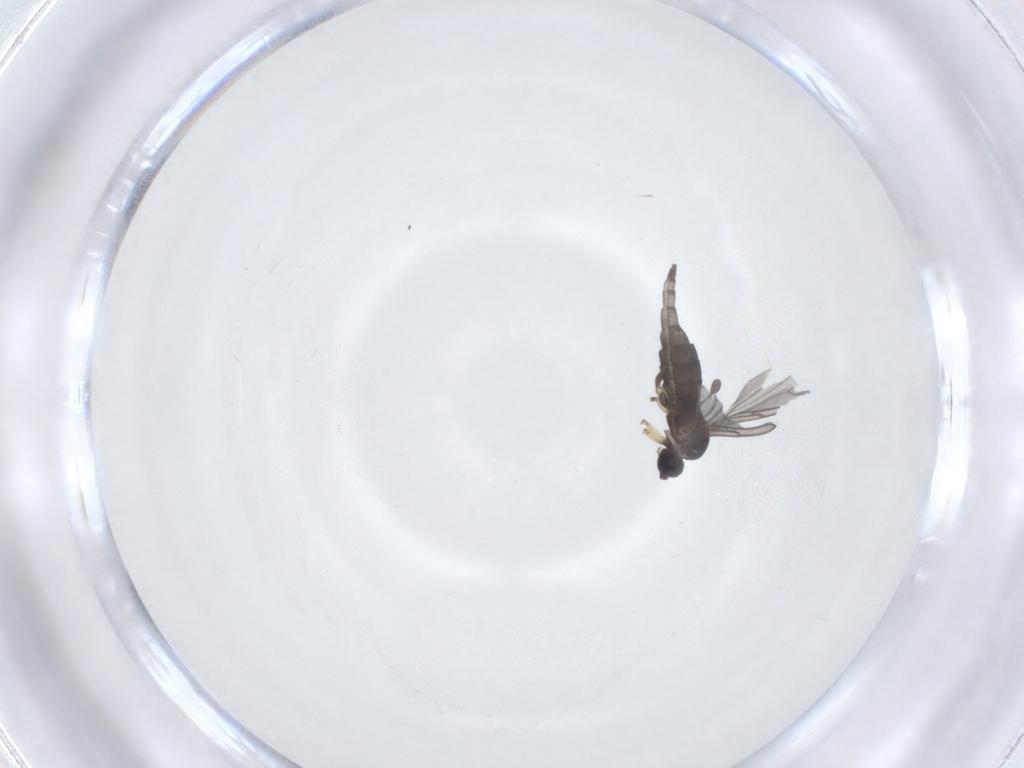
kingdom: Animalia
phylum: Arthropoda
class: Insecta
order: Diptera
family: Sciaridae
